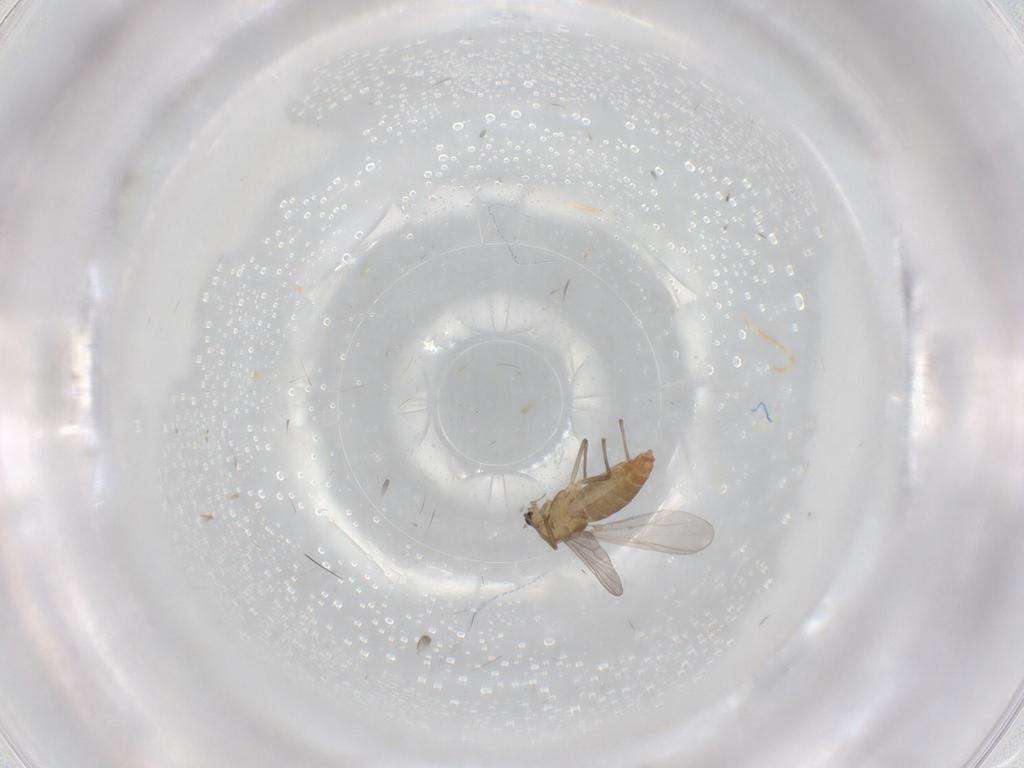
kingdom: Animalia
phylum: Arthropoda
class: Insecta
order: Diptera
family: Chironomidae
